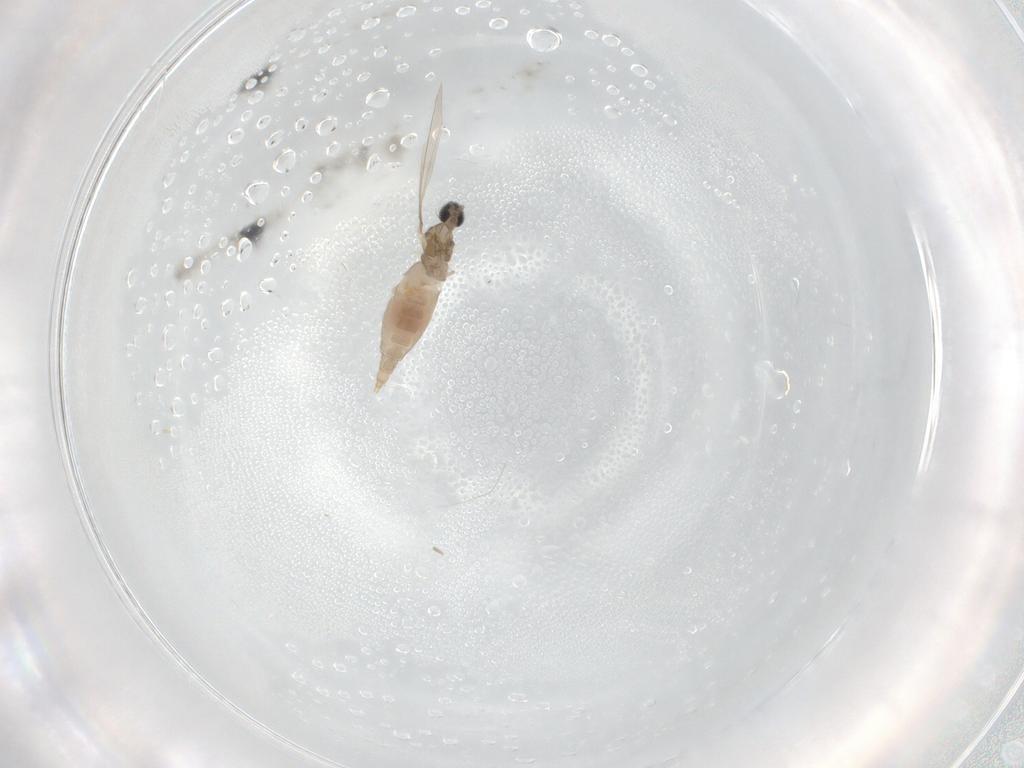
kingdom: Animalia
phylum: Arthropoda
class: Insecta
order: Diptera
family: Cecidomyiidae
